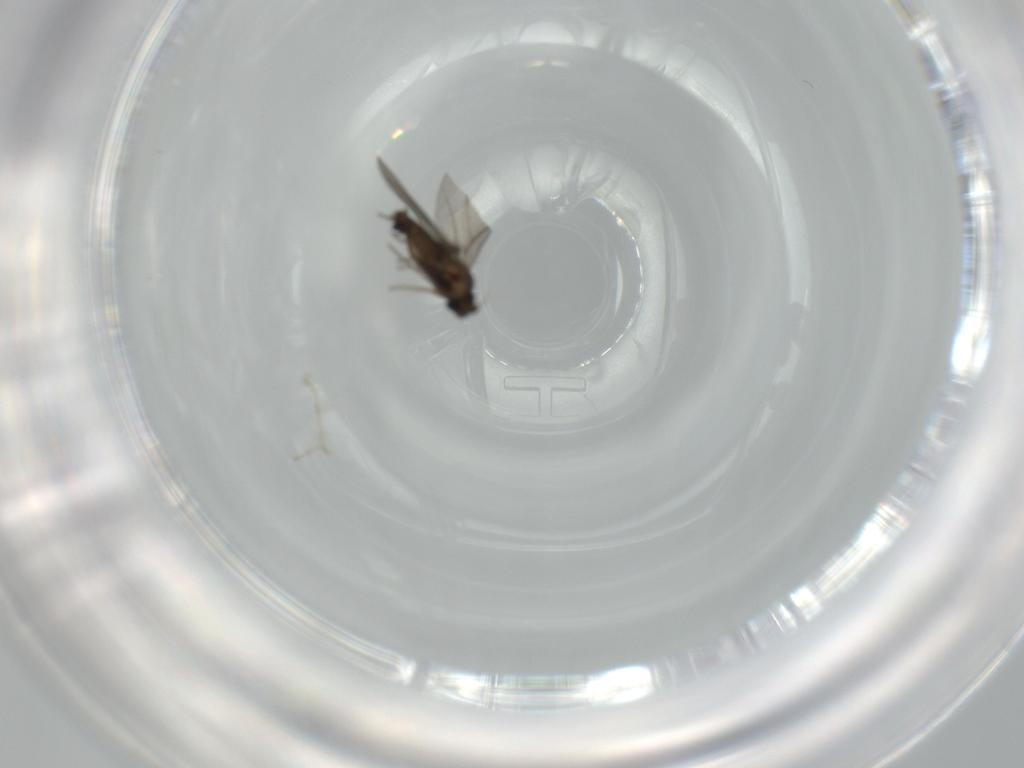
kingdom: Animalia
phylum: Arthropoda
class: Insecta
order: Diptera
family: Phoridae
